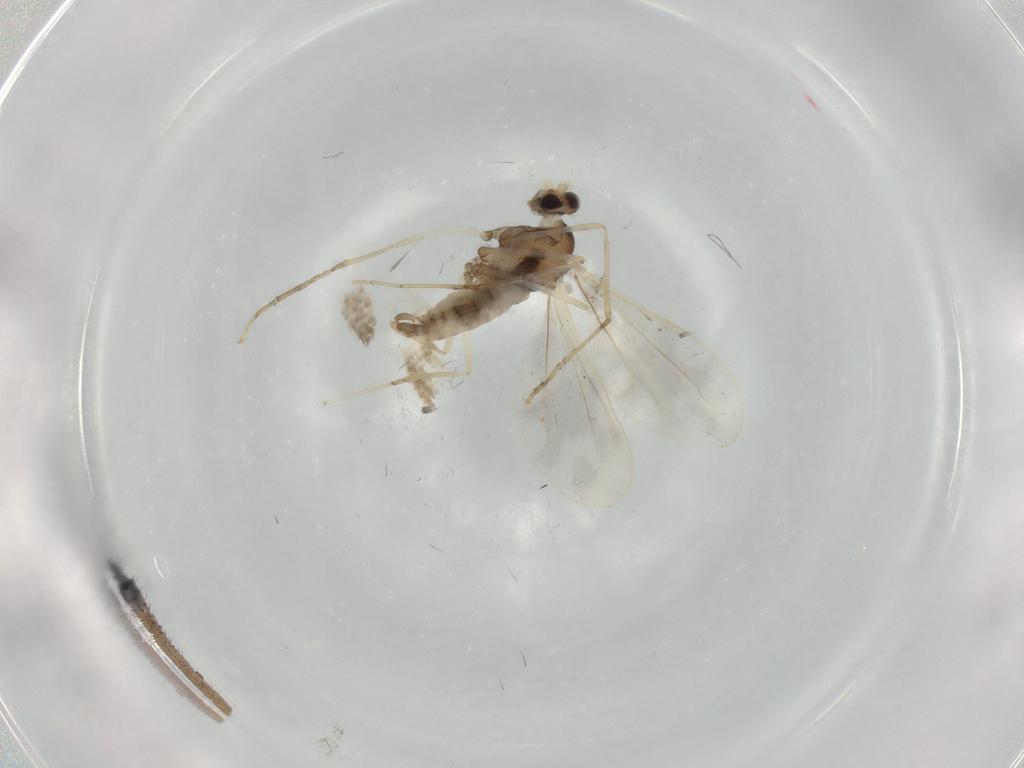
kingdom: Animalia
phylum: Arthropoda
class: Insecta
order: Diptera
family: Cecidomyiidae
